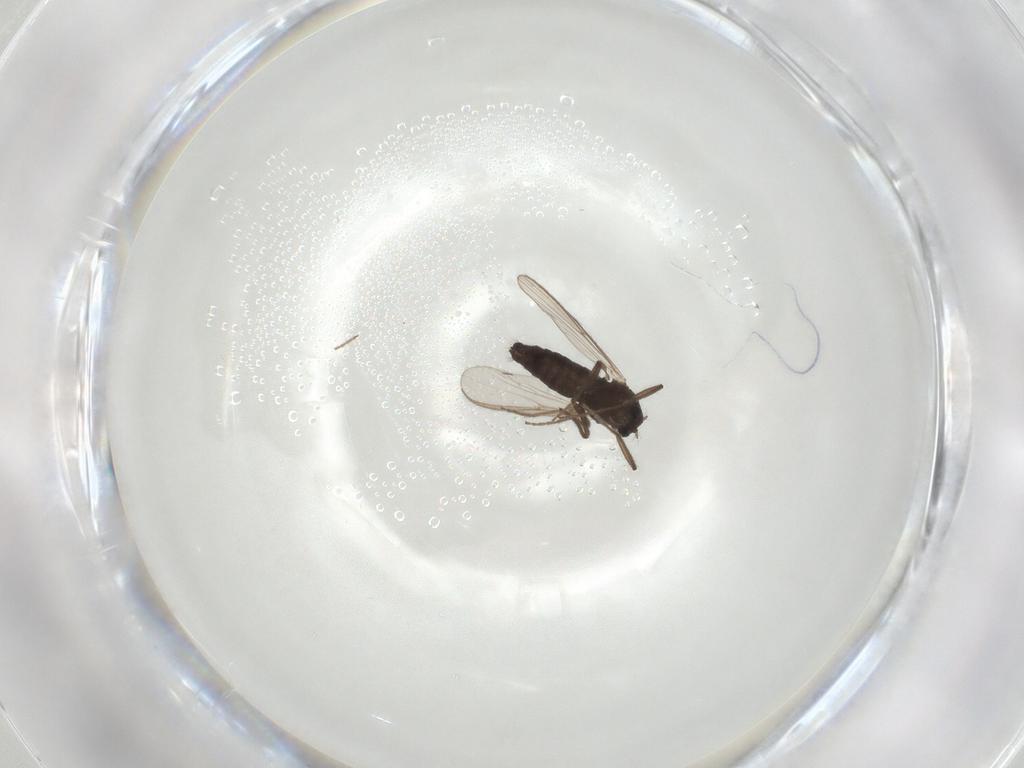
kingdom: Animalia
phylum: Arthropoda
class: Insecta
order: Diptera
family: Chironomidae
